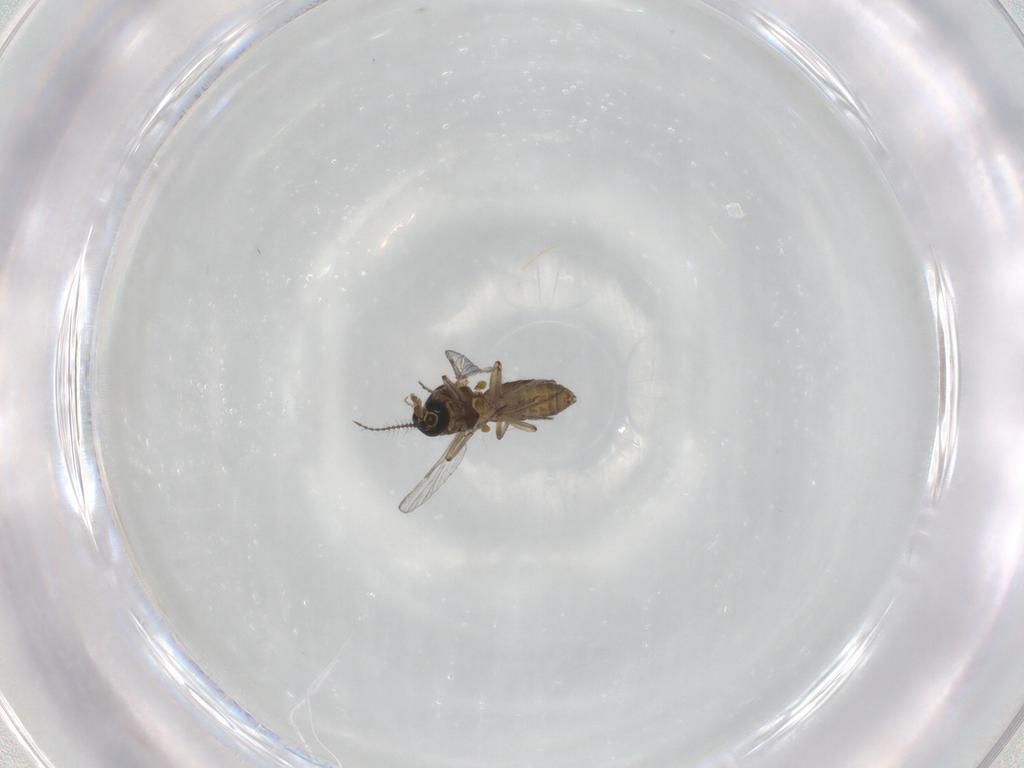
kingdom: Animalia
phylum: Arthropoda
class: Insecta
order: Diptera
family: Ceratopogonidae
